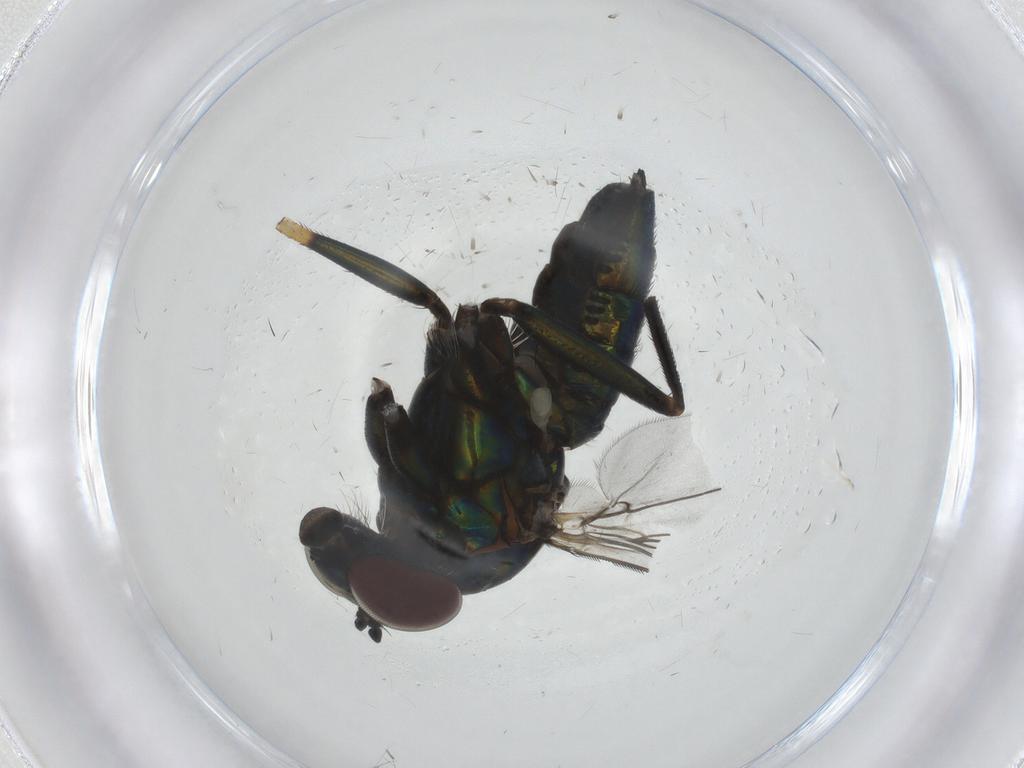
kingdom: Animalia
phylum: Arthropoda
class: Insecta
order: Diptera
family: Dolichopodidae
